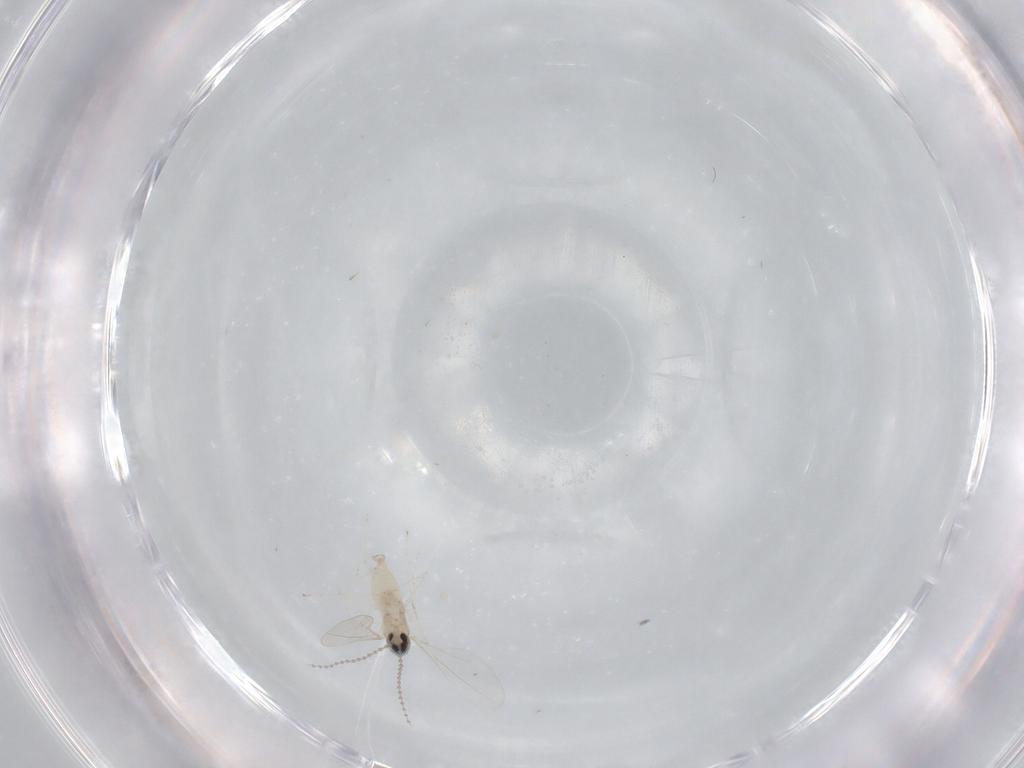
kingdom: Animalia
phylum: Arthropoda
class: Insecta
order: Diptera
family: Cecidomyiidae
